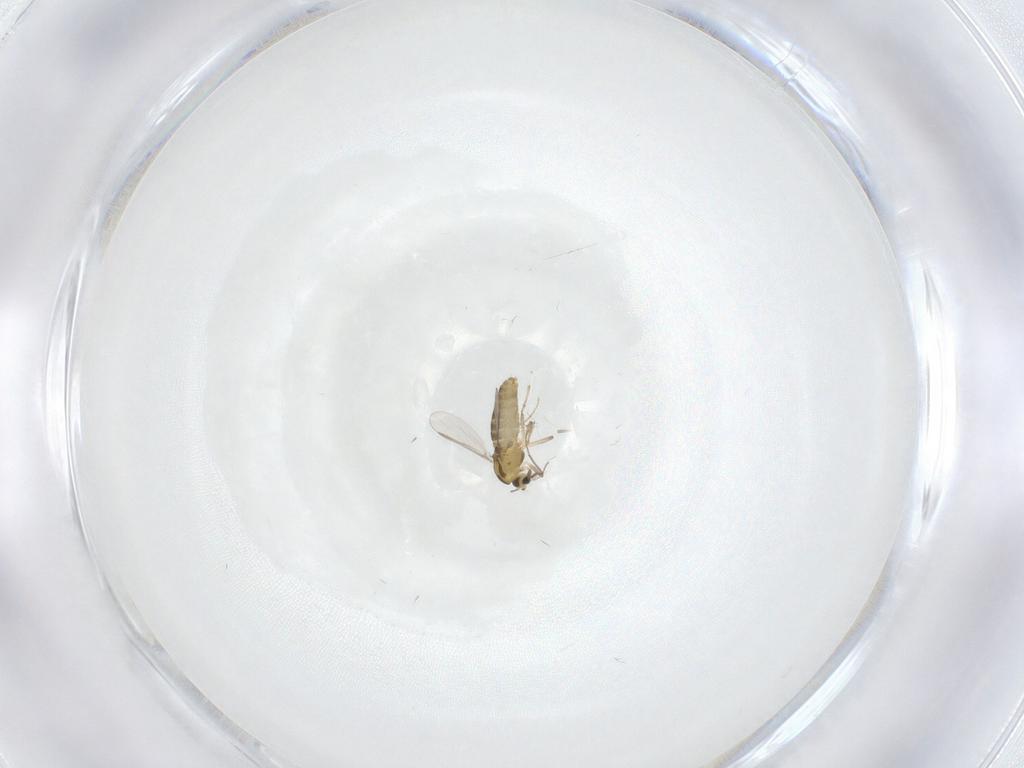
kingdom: Animalia
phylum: Arthropoda
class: Insecta
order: Diptera
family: Chironomidae
